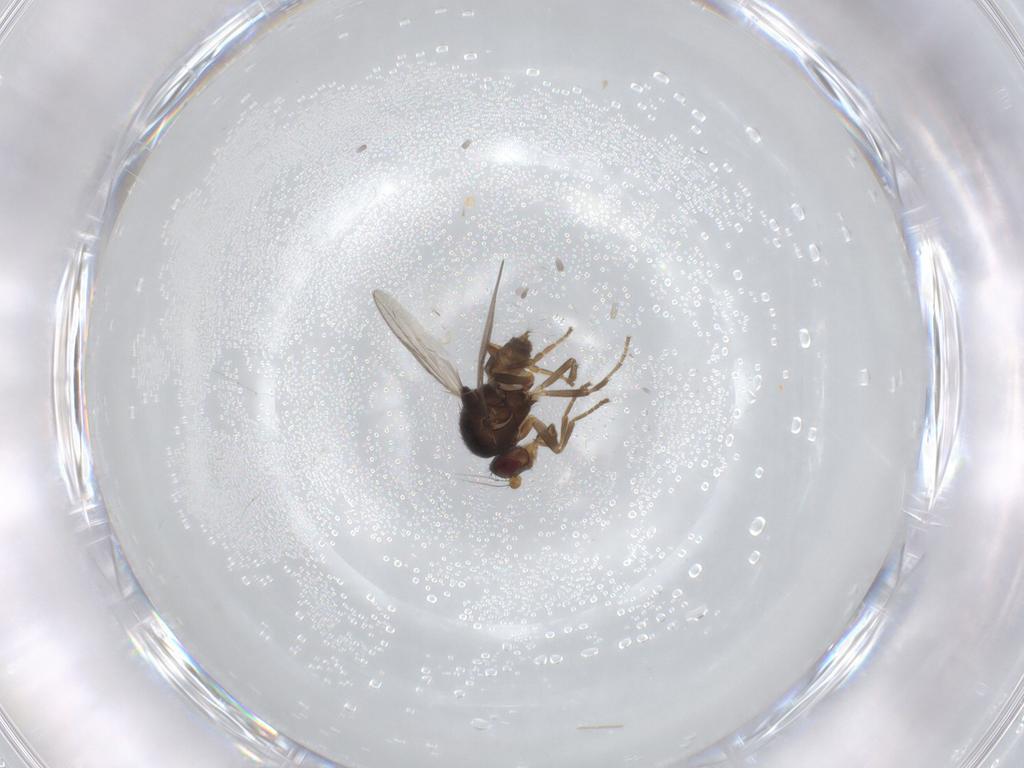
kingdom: Animalia
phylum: Arthropoda
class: Insecta
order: Diptera
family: Sphaeroceridae
